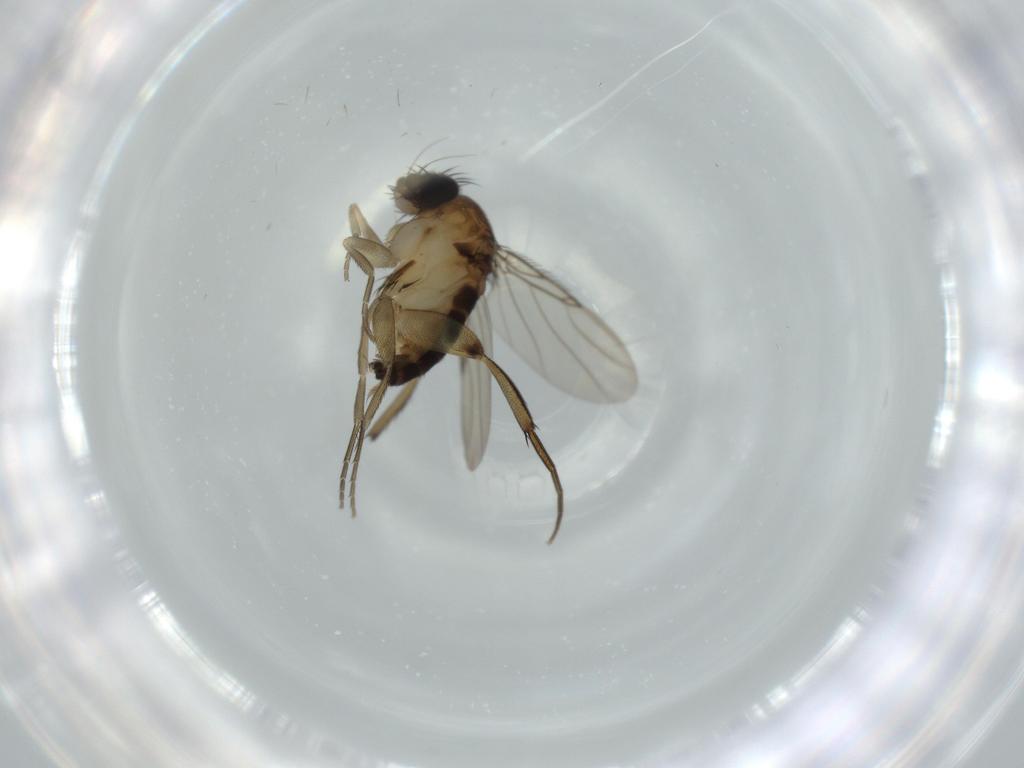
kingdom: Animalia
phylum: Arthropoda
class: Insecta
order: Diptera
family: Phoridae
